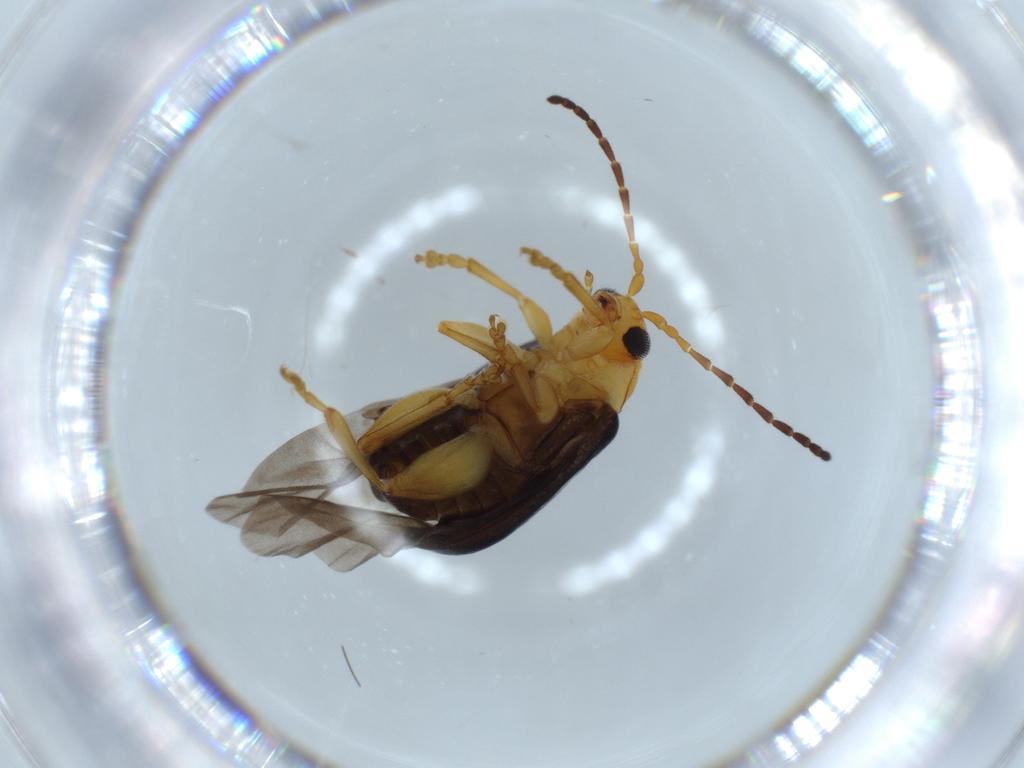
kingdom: Animalia
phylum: Arthropoda
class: Insecta
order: Coleoptera
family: Chrysomelidae
